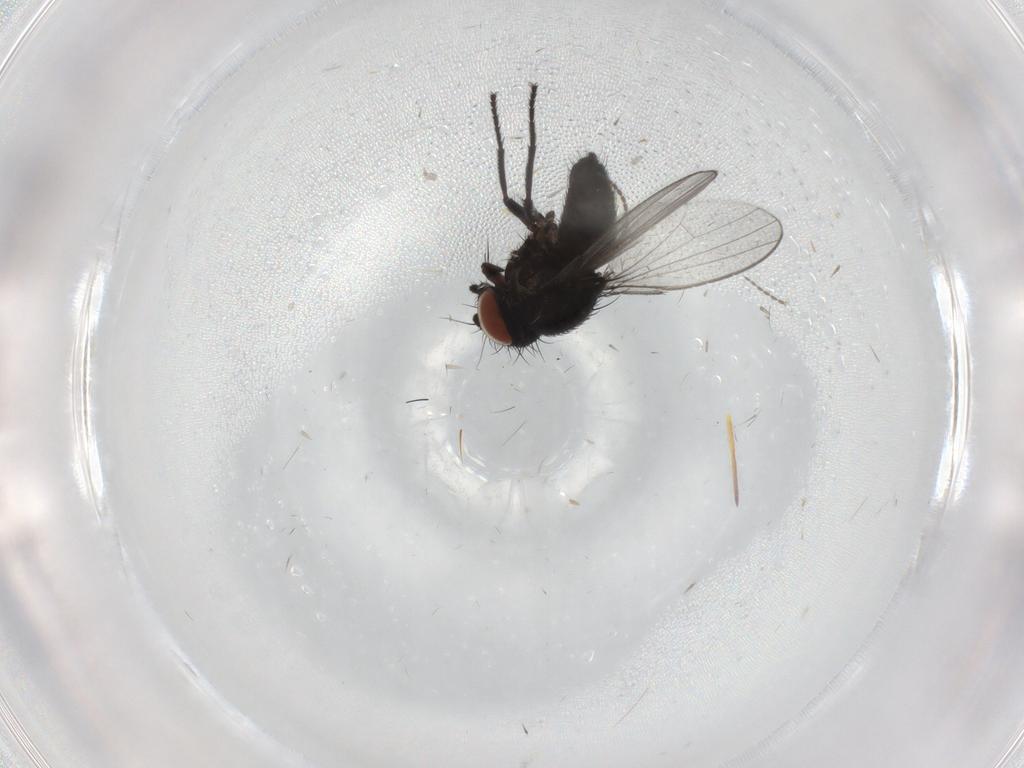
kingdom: Animalia
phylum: Arthropoda
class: Insecta
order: Diptera
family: Milichiidae
